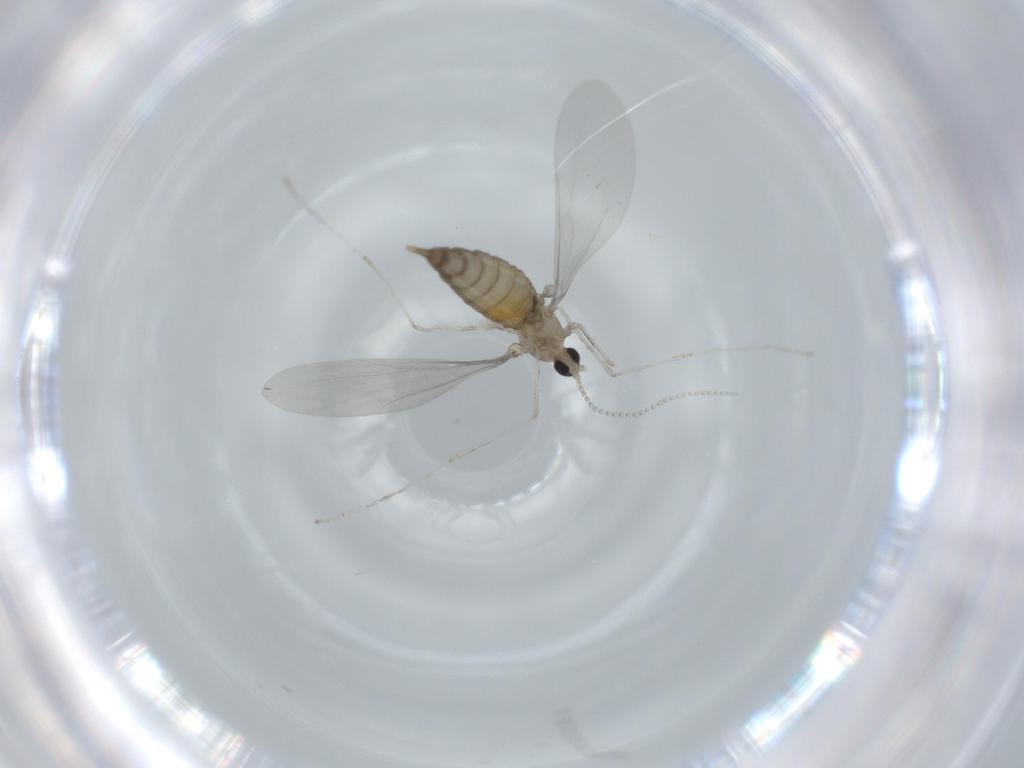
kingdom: Animalia
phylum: Arthropoda
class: Insecta
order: Diptera
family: Cecidomyiidae
